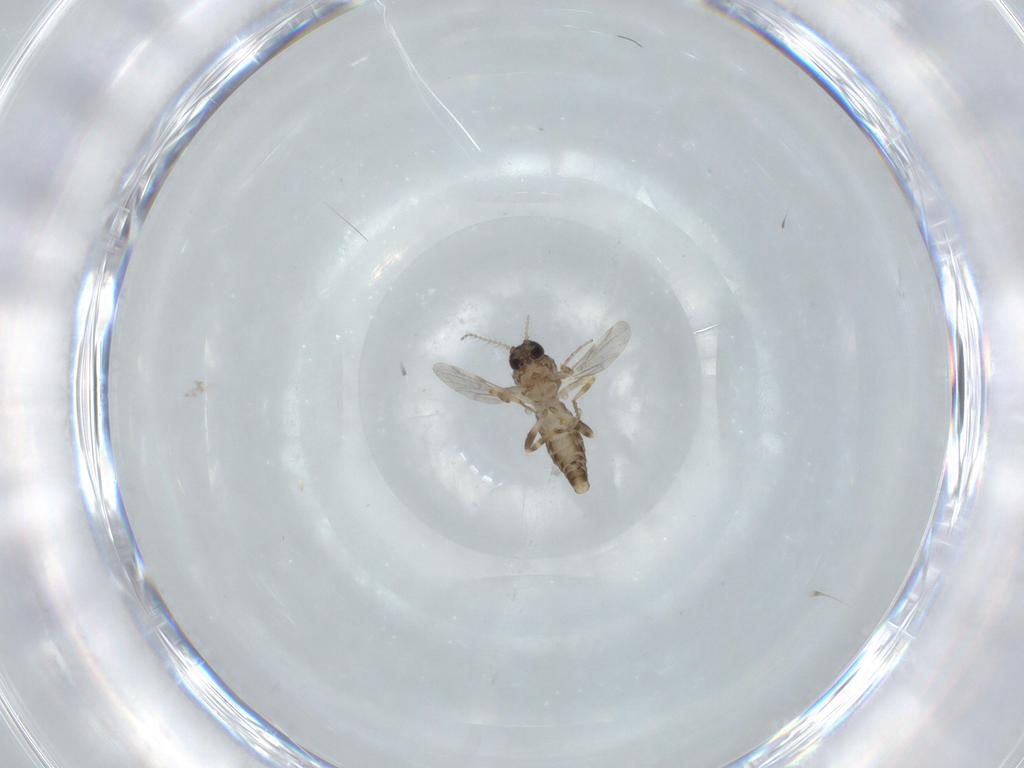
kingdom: Animalia
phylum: Arthropoda
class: Insecta
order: Diptera
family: Ceratopogonidae
